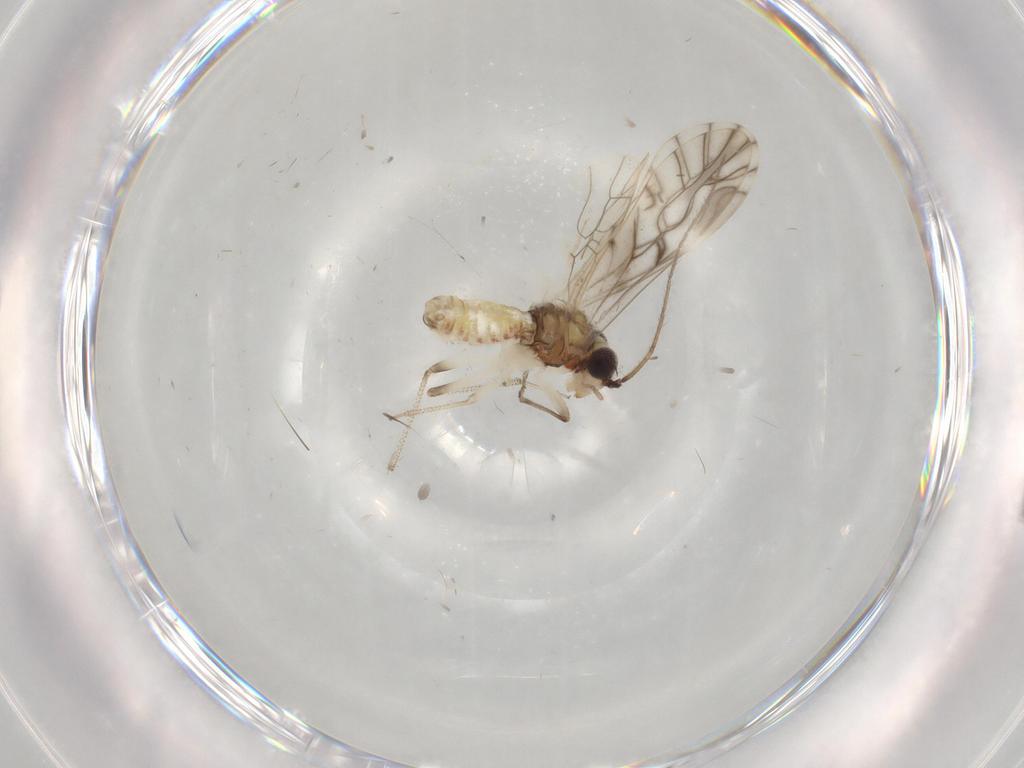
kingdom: Animalia
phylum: Arthropoda
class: Insecta
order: Psocodea
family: Caeciliusidae
